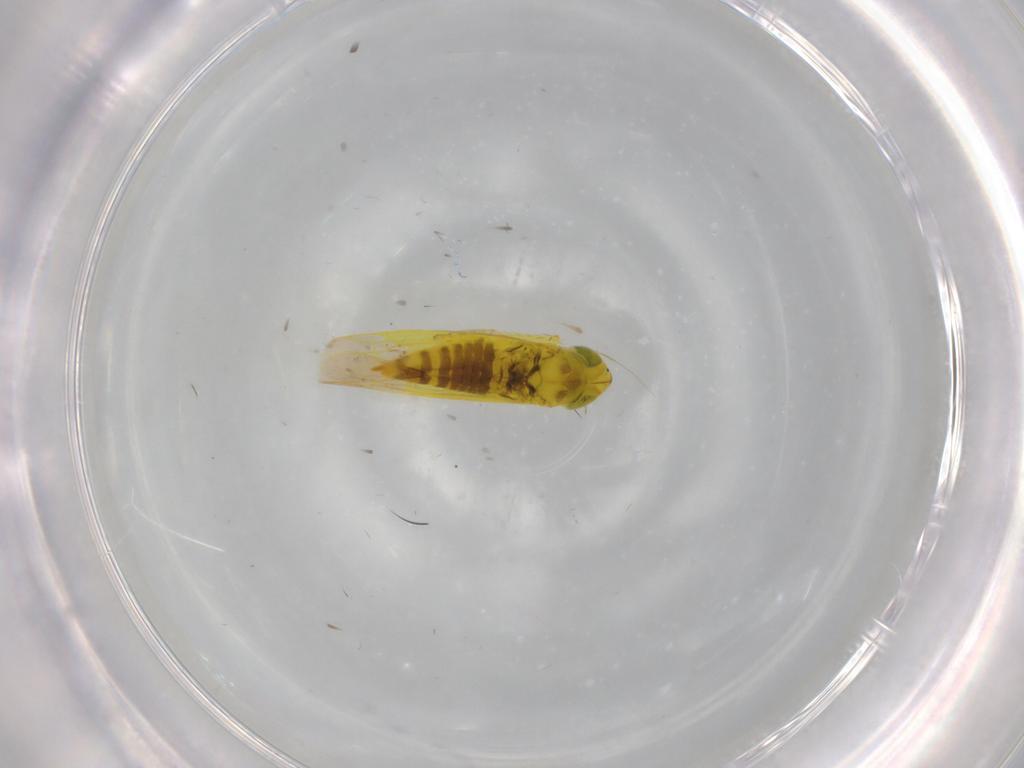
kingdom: Animalia
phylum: Arthropoda
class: Insecta
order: Hemiptera
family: Cicadellidae
